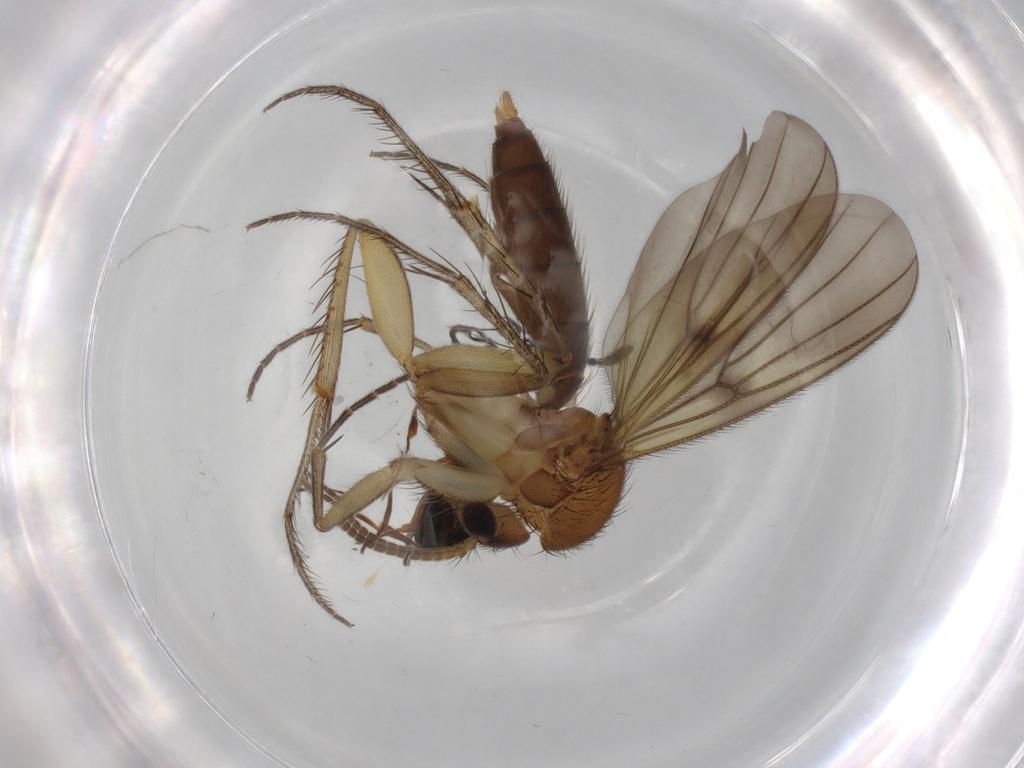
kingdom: Animalia
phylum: Arthropoda
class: Insecta
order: Diptera
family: Phoridae
